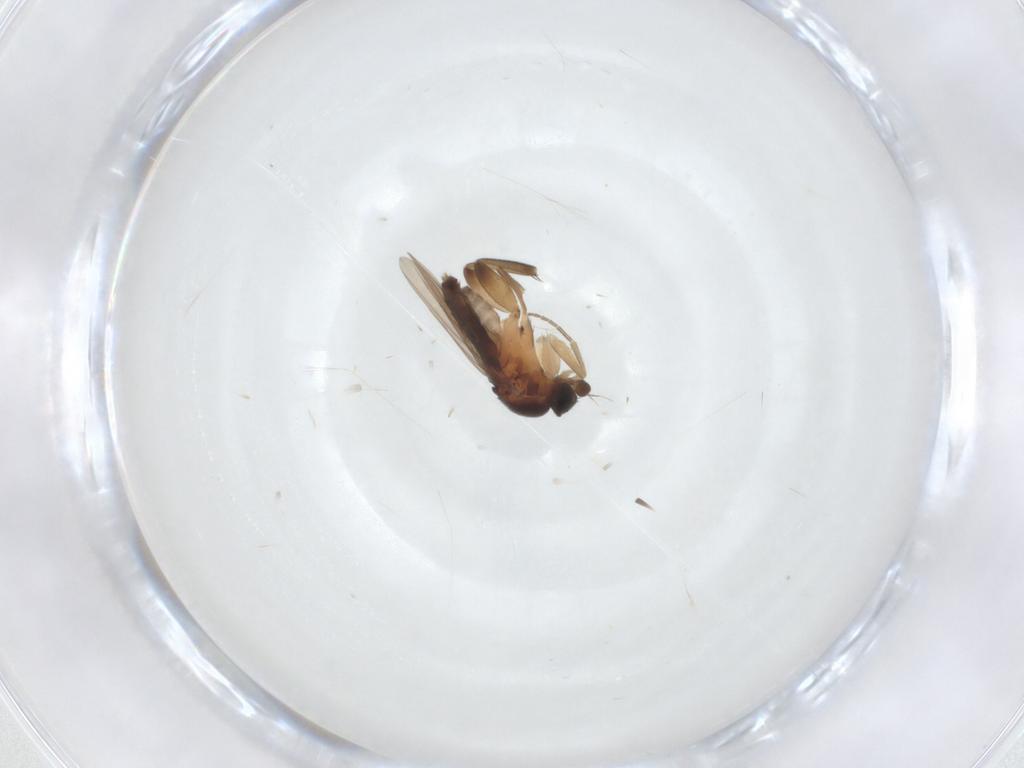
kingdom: Animalia
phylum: Arthropoda
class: Insecta
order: Diptera
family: Phoridae
